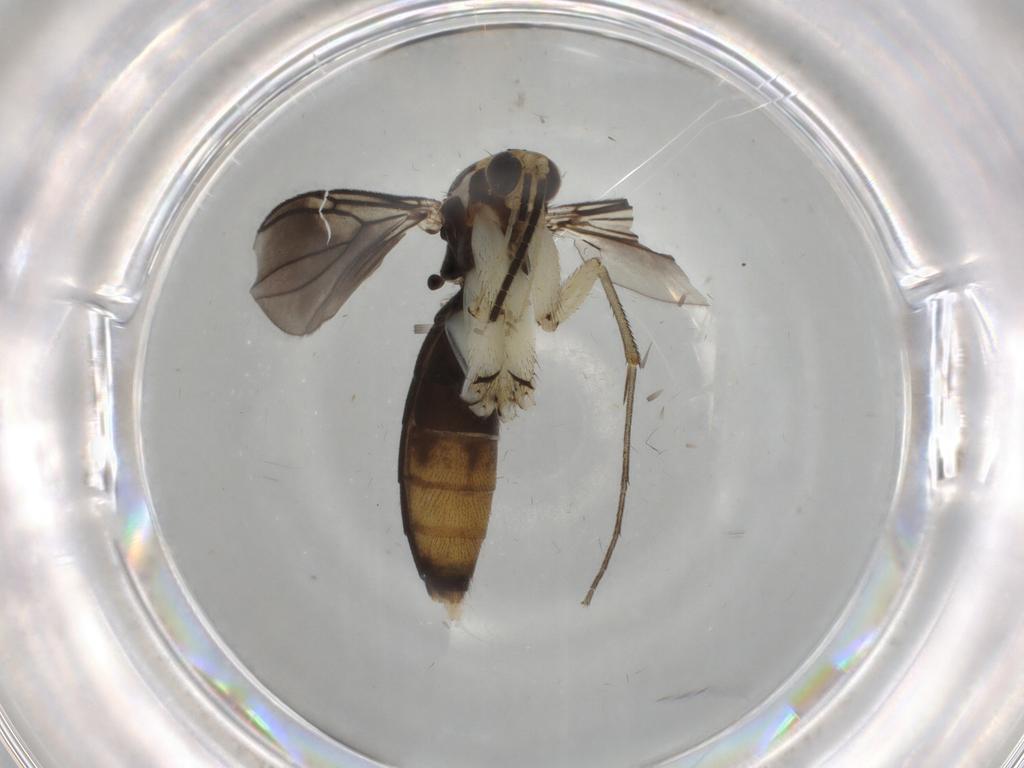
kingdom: Animalia
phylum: Arthropoda
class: Insecta
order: Diptera
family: Mycetophilidae
